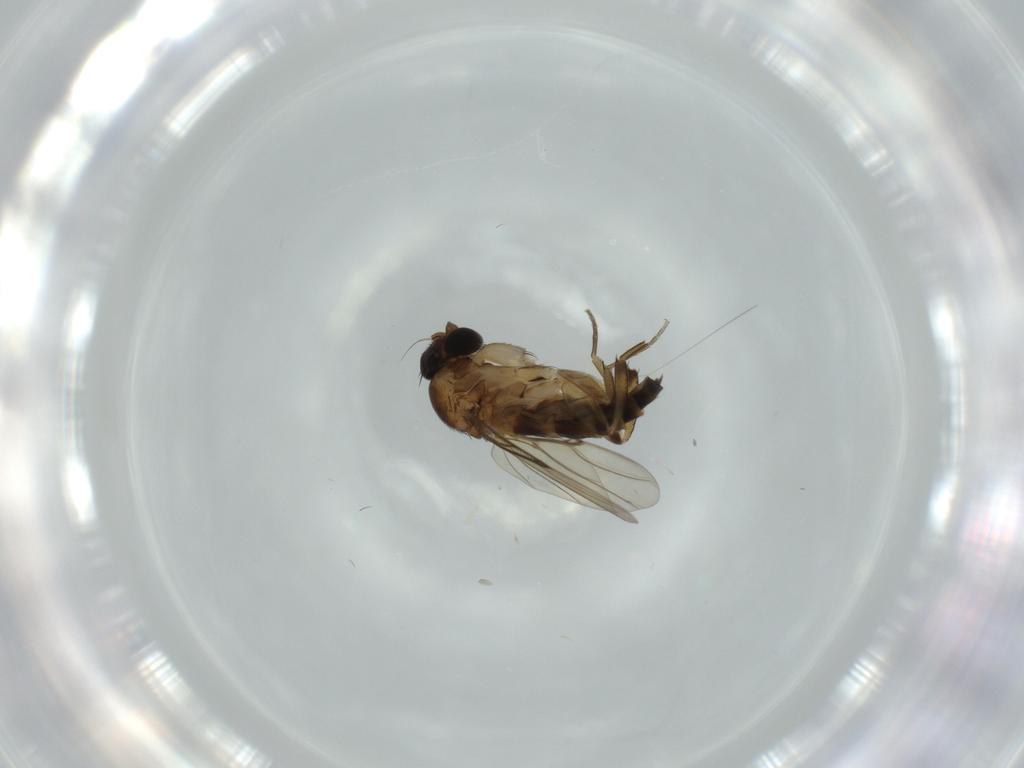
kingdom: Animalia
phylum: Arthropoda
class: Insecta
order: Diptera
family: Phoridae
